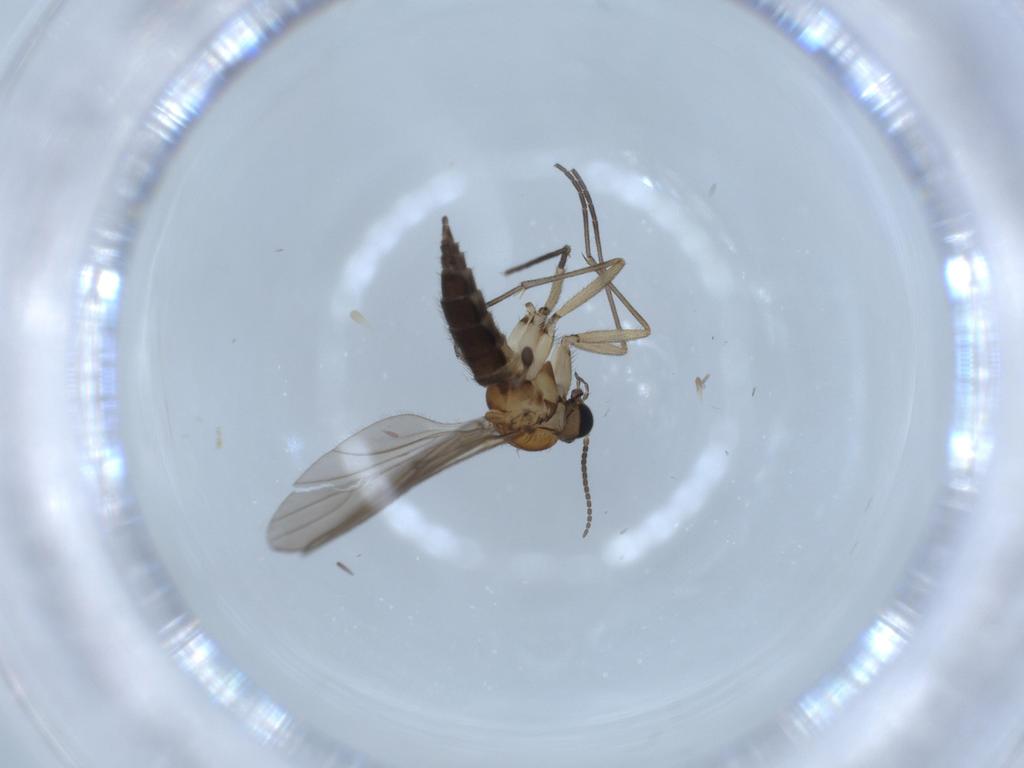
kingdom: Animalia
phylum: Arthropoda
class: Insecta
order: Diptera
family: Sciaridae
